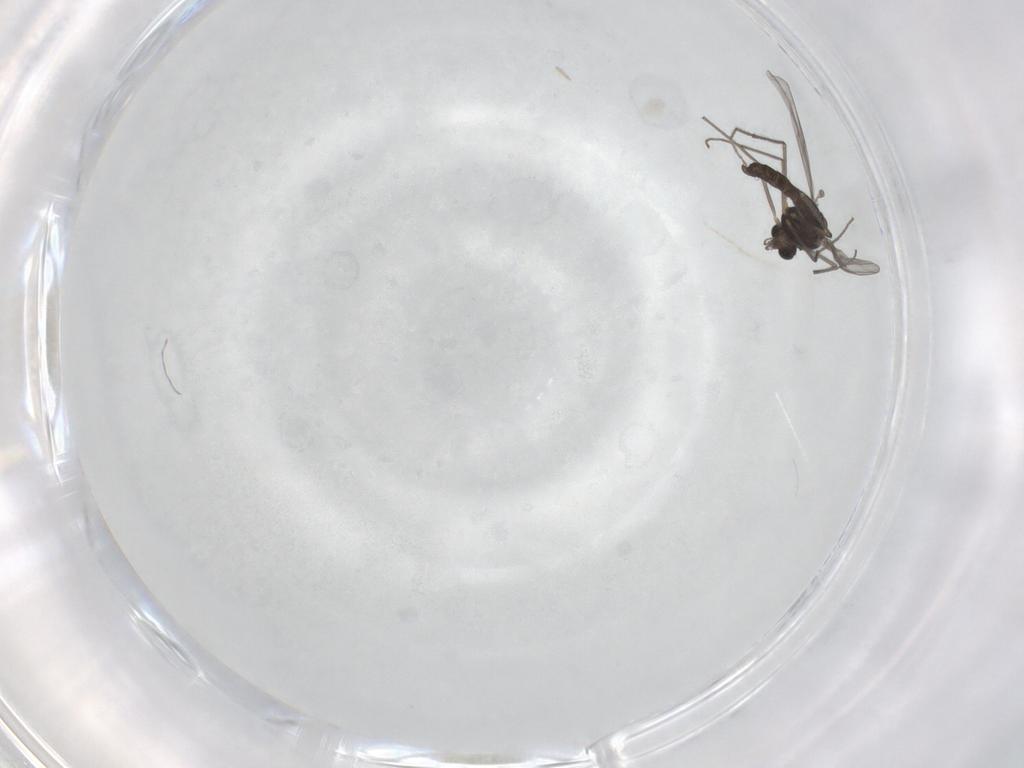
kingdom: Animalia
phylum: Arthropoda
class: Insecta
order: Diptera
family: Chironomidae
